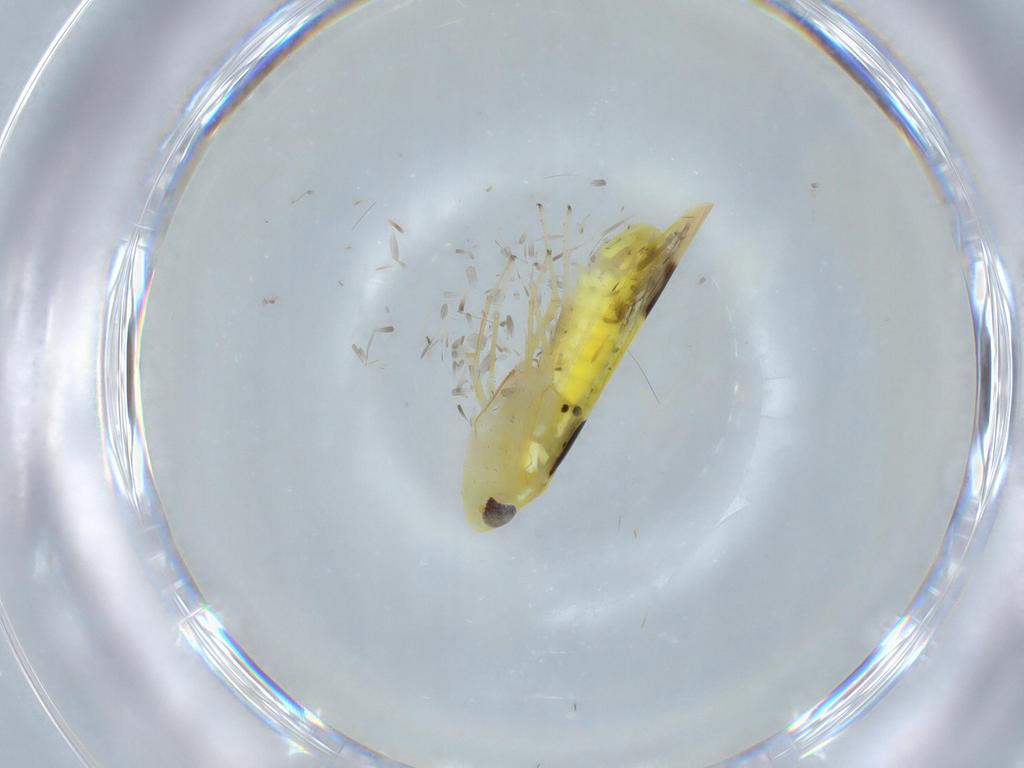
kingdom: Animalia
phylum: Arthropoda
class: Insecta
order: Hemiptera
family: Cicadellidae
